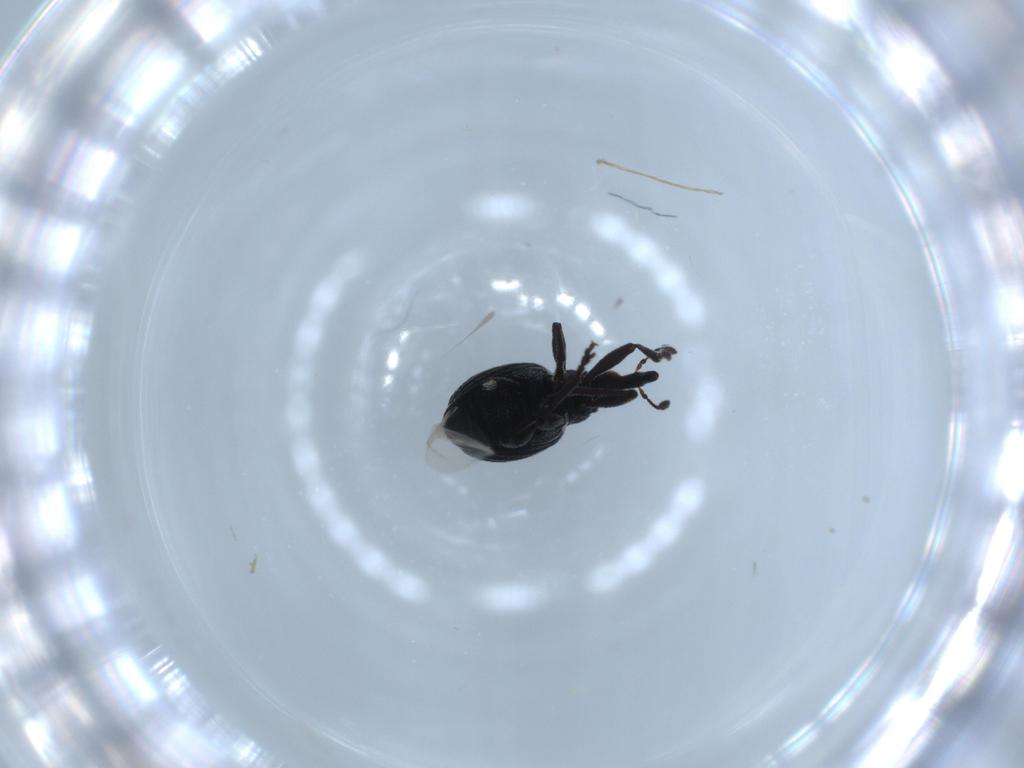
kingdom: Animalia
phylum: Arthropoda
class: Insecta
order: Coleoptera
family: Brentidae
